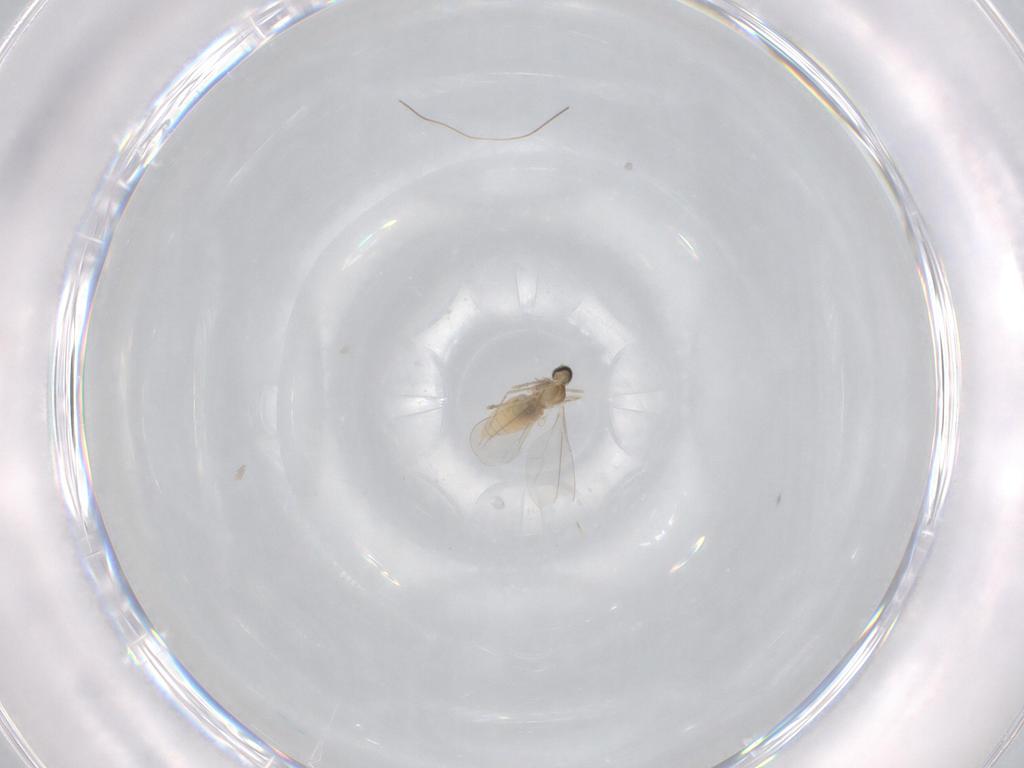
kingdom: Animalia
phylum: Arthropoda
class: Insecta
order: Diptera
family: Cecidomyiidae
